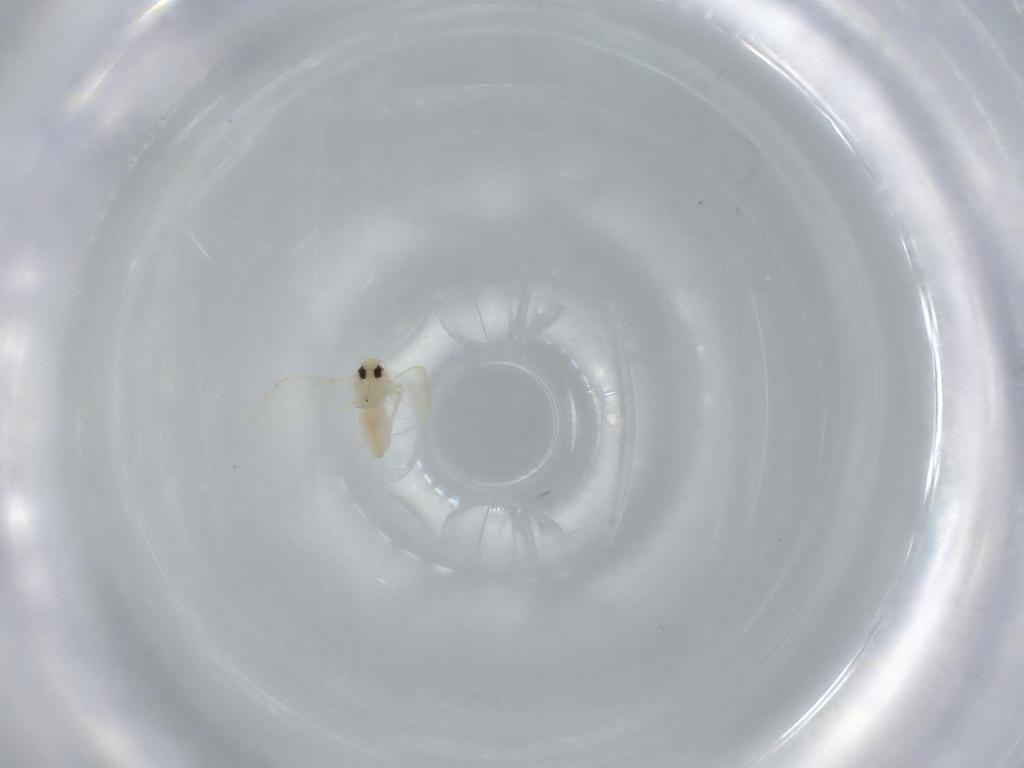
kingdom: Animalia
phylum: Arthropoda
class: Insecta
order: Hemiptera
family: Aleyrodidae
